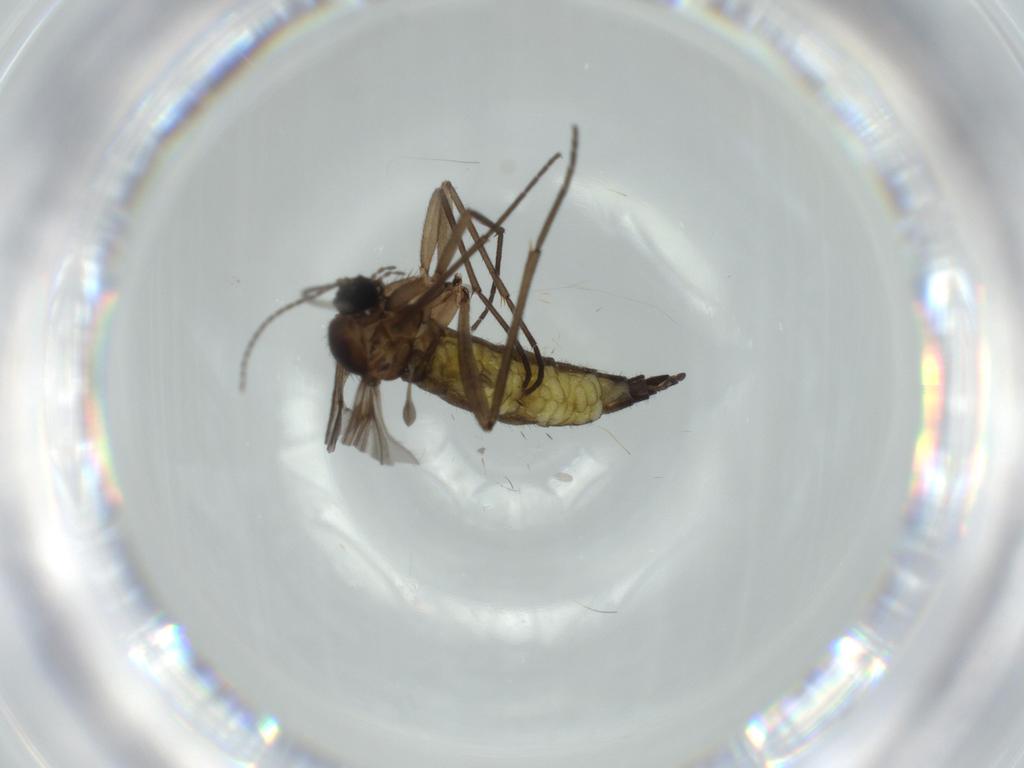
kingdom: Animalia
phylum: Arthropoda
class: Insecta
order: Diptera
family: Sciaridae
